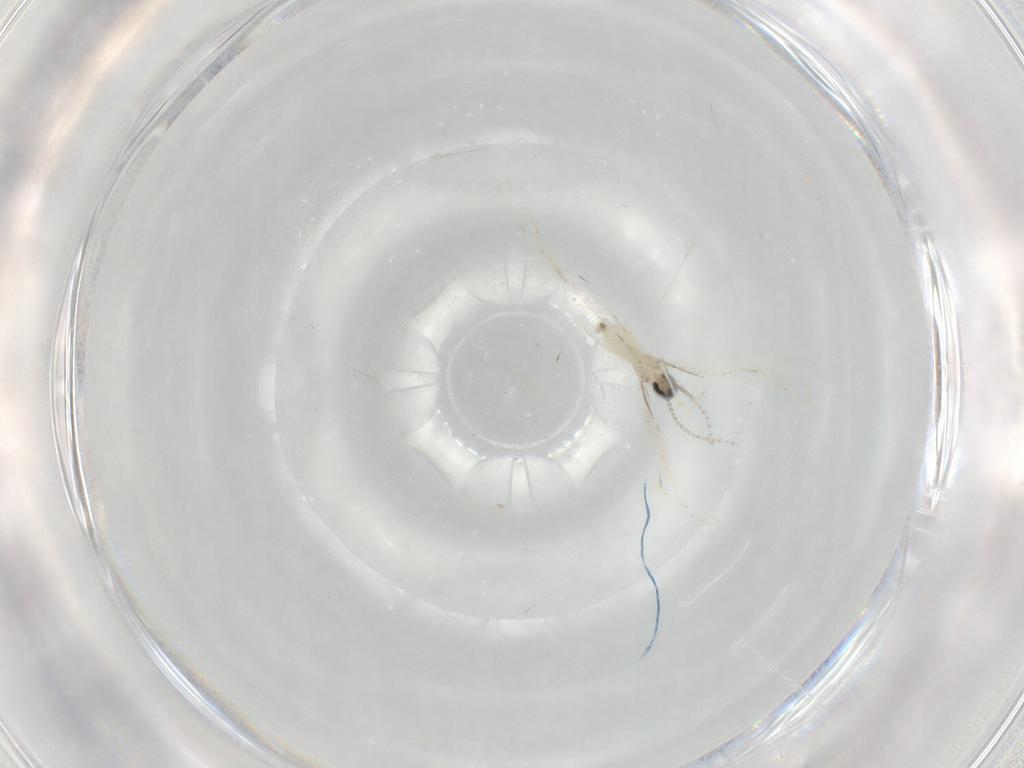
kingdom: Animalia
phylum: Arthropoda
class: Insecta
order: Diptera
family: Cecidomyiidae
